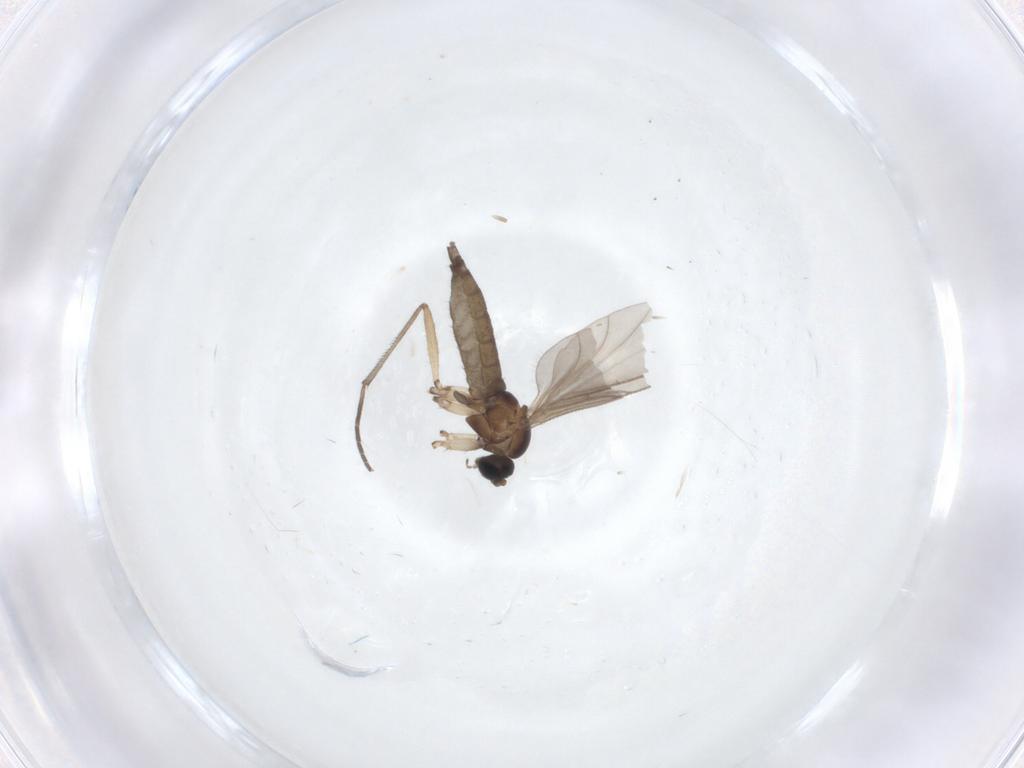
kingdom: Animalia
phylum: Arthropoda
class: Insecta
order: Diptera
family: Sciaridae
